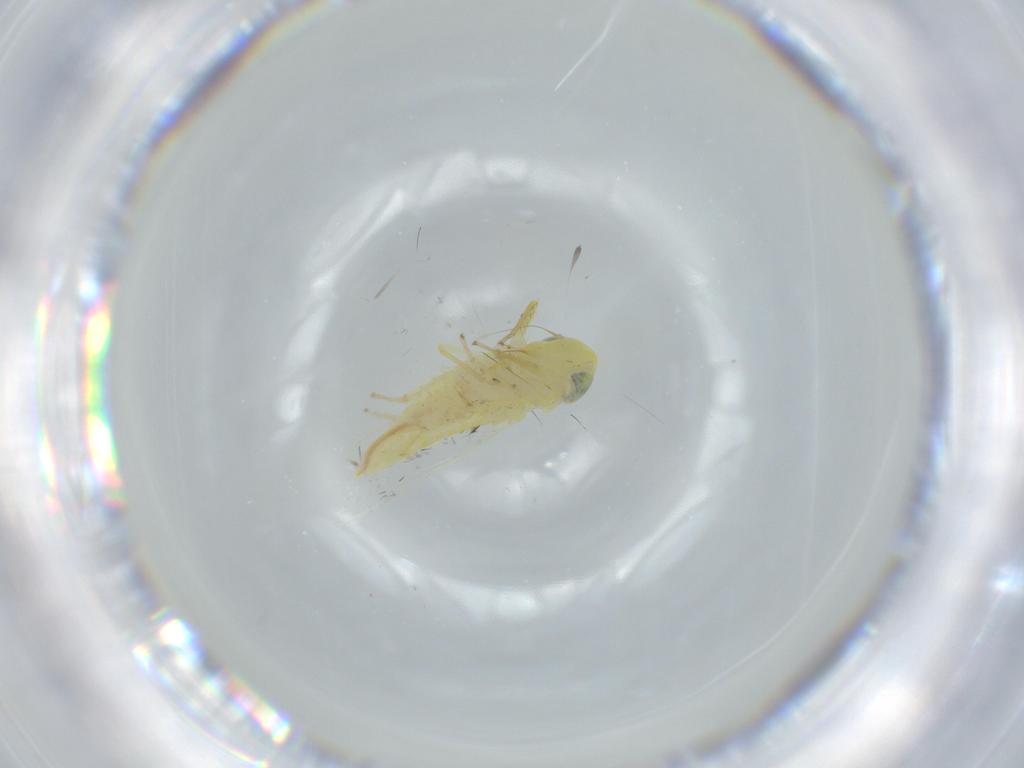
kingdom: Animalia
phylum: Arthropoda
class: Insecta
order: Hemiptera
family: Cicadellidae
